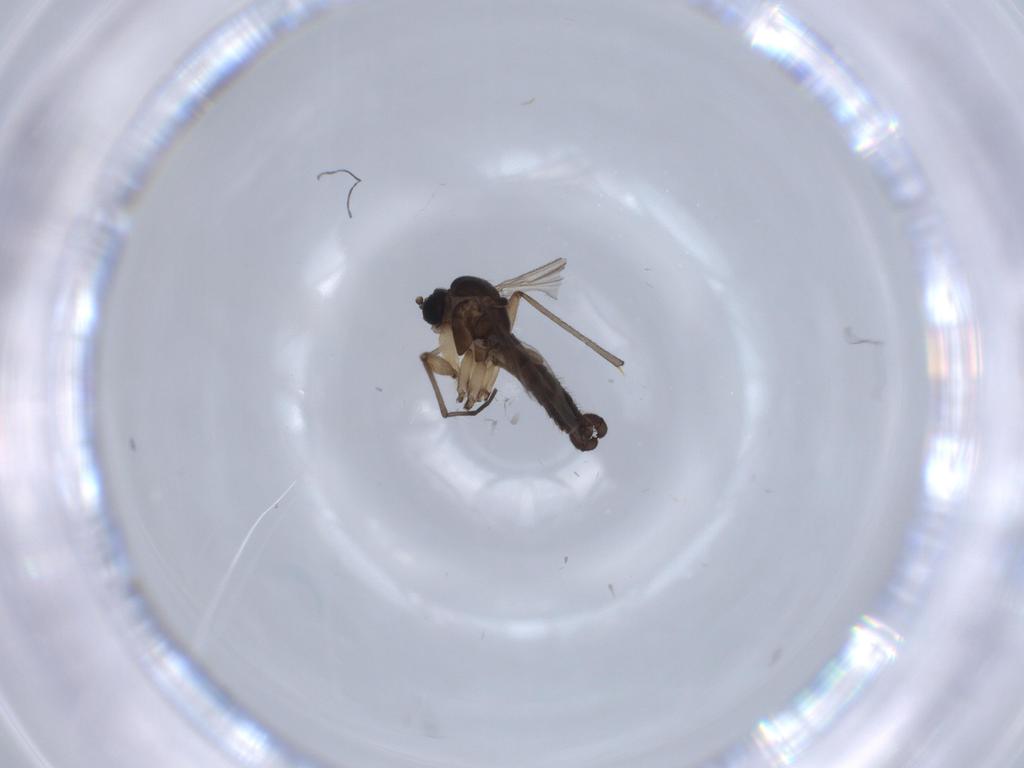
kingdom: Animalia
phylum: Arthropoda
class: Insecta
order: Diptera
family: Sciaridae
